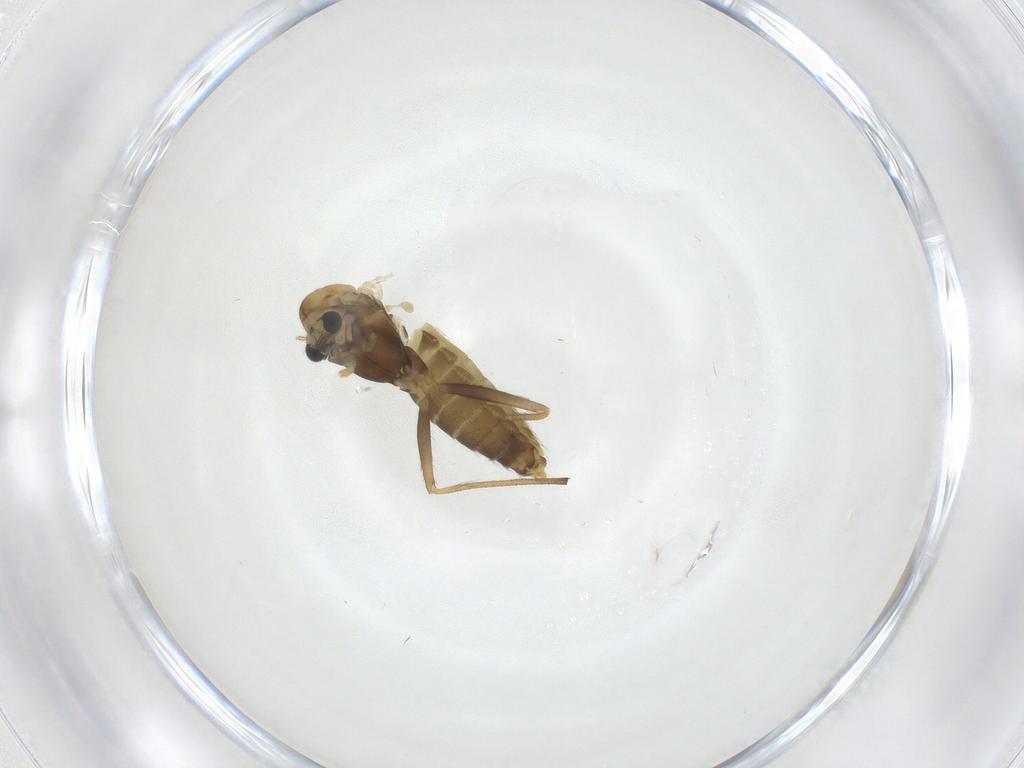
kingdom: Animalia
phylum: Arthropoda
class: Insecta
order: Diptera
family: Chironomidae
